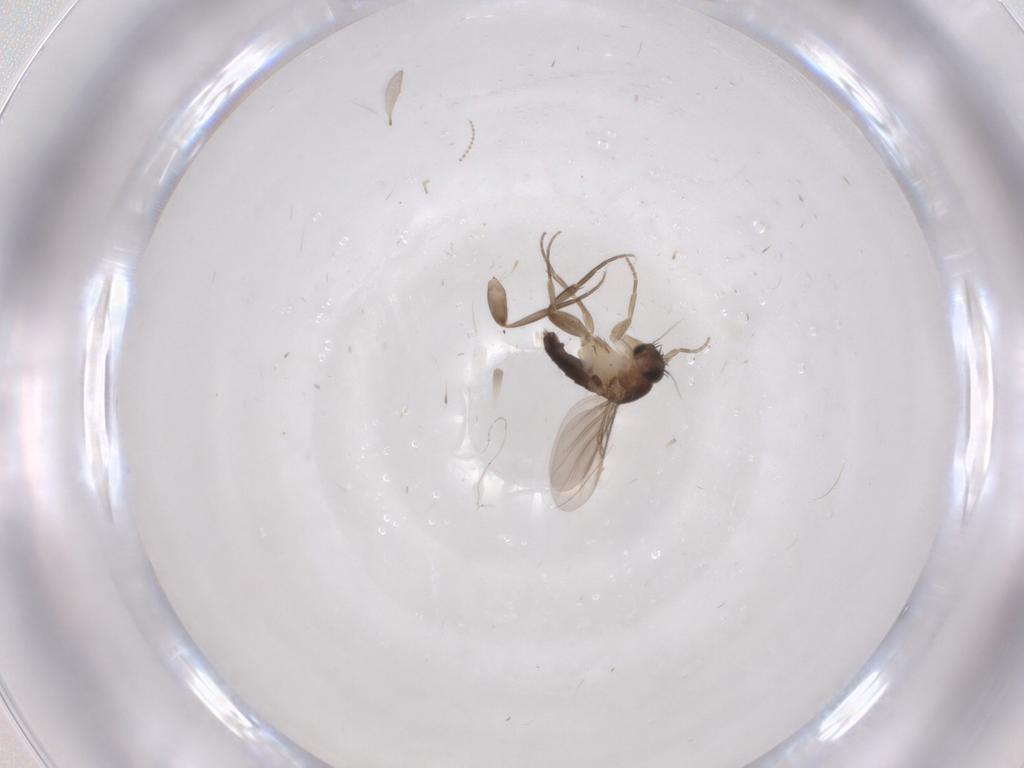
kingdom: Animalia
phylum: Arthropoda
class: Insecta
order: Diptera
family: Phoridae
